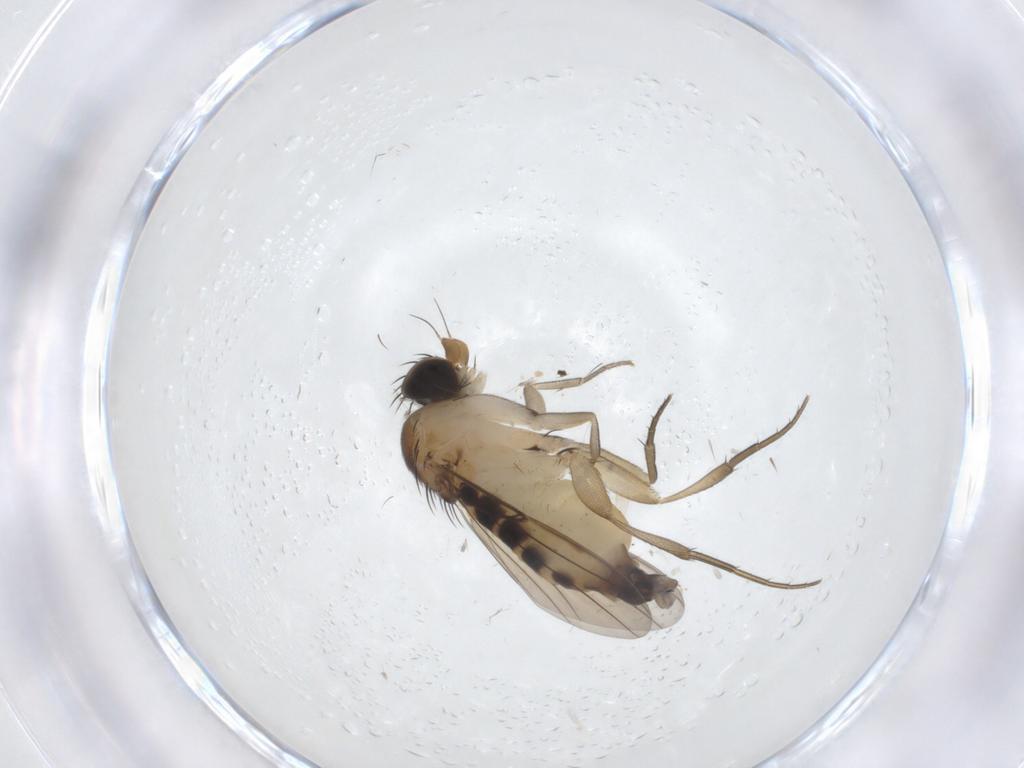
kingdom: Animalia
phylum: Arthropoda
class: Insecta
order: Diptera
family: Phoridae
